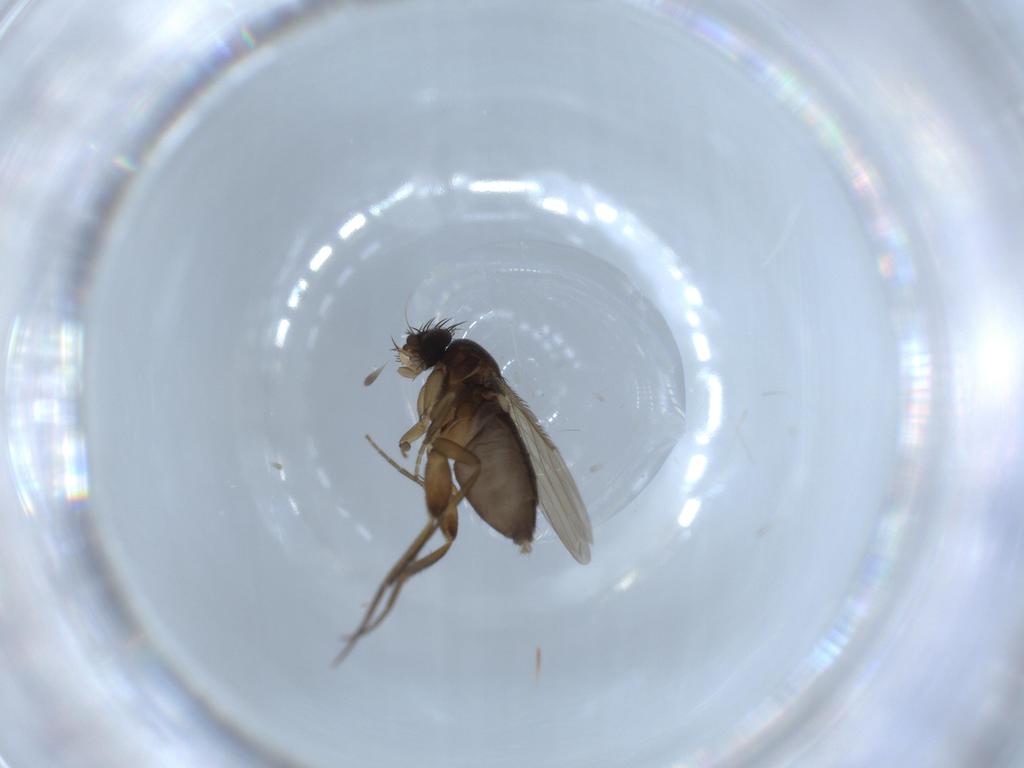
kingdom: Animalia
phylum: Arthropoda
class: Insecta
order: Diptera
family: Phoridae
